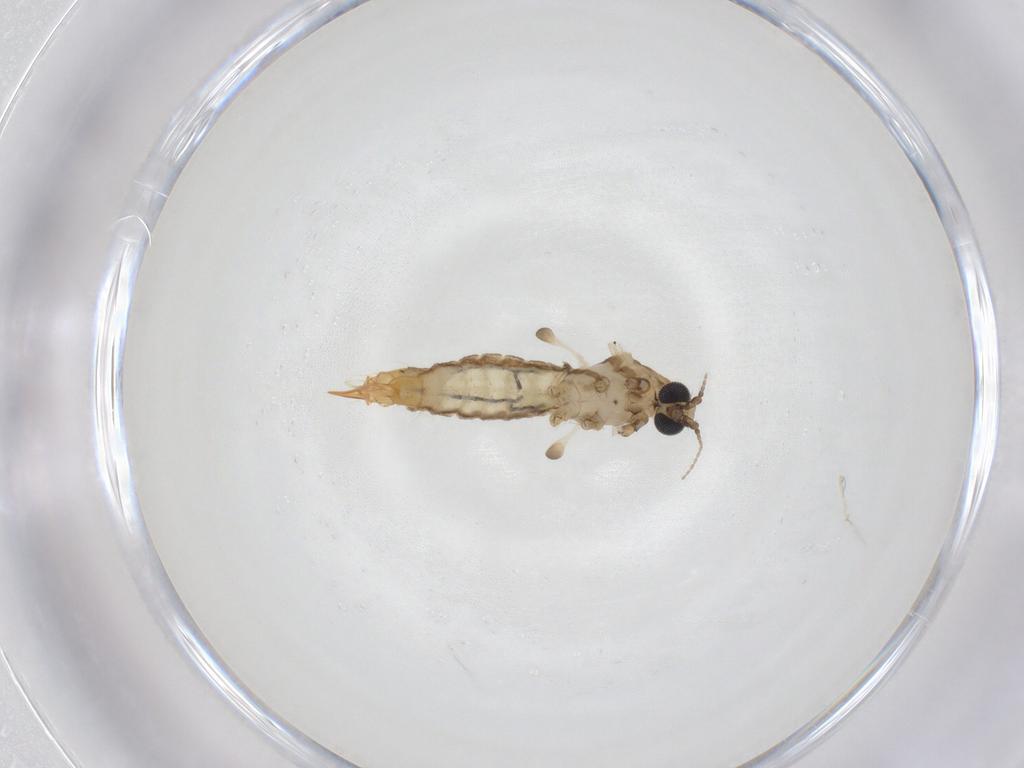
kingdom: Animalia
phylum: Arthropoda
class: Insecta
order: Diptera
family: Limoniidae
